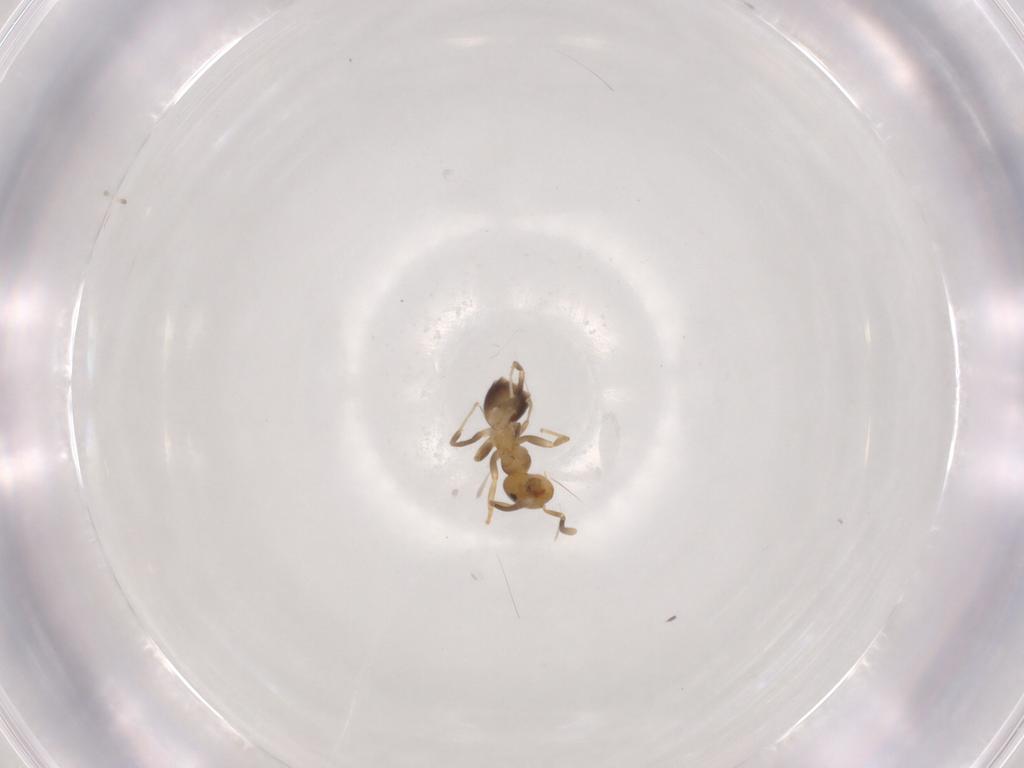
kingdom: Animalia
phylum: Arthropoda
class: Insecta
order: Hymenoptera
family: Formicidae
